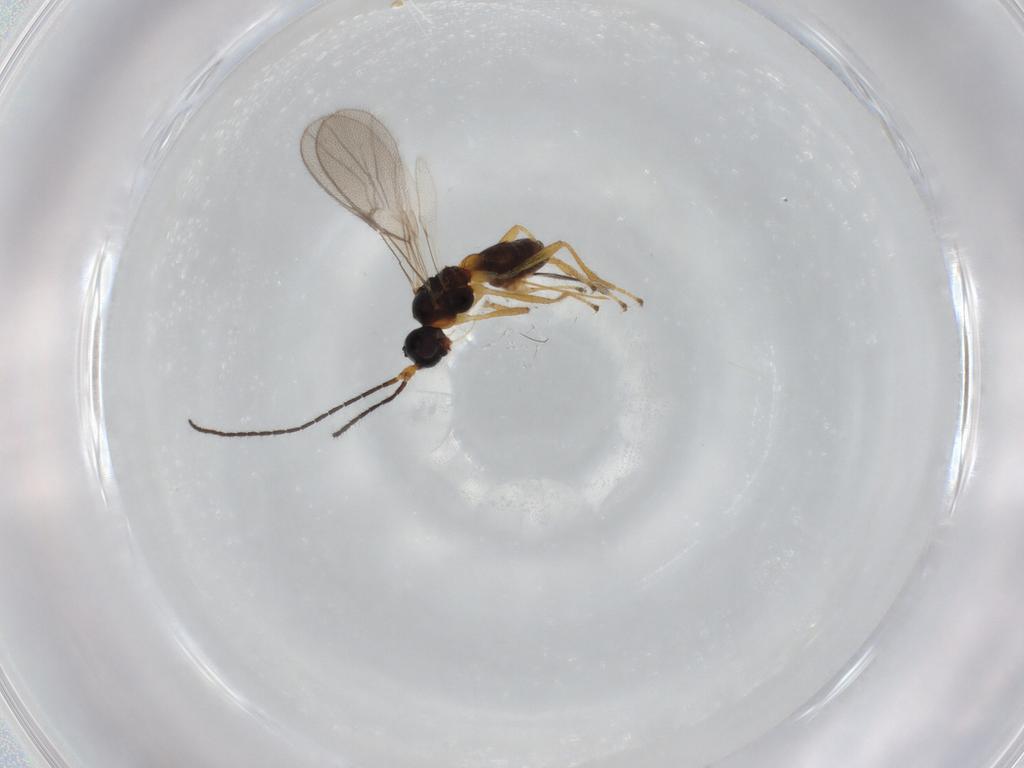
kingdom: Animalia
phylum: Arthropoda
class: Insecta
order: Hymenoptera
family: Braconidae
